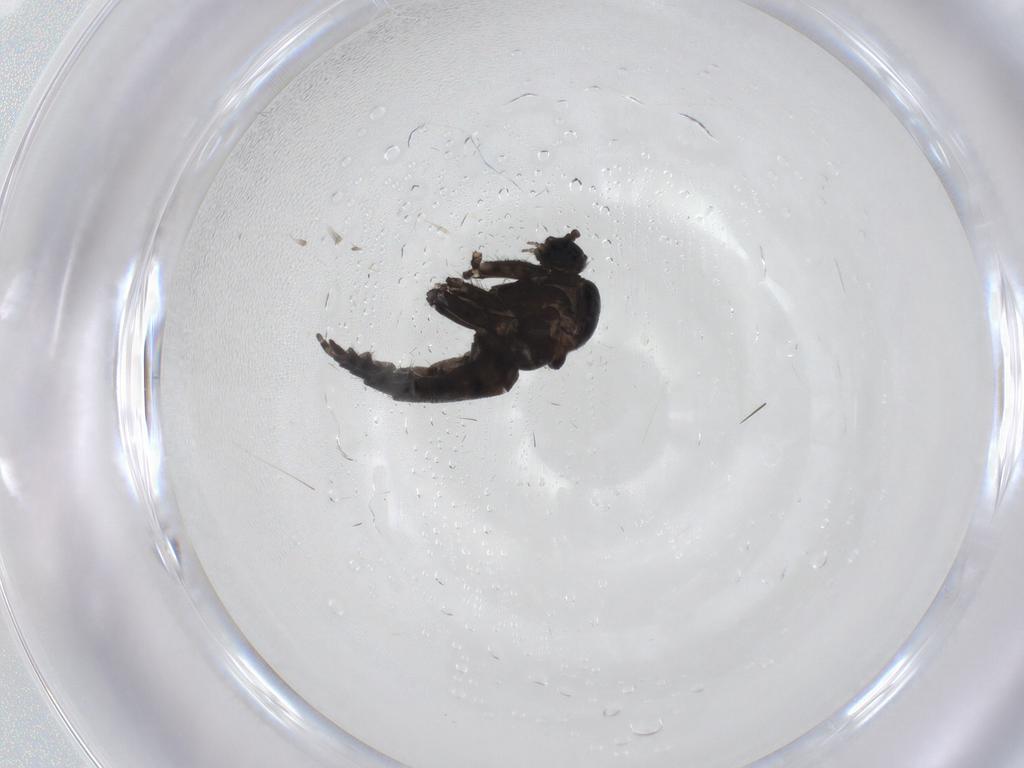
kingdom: Animalia
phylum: Arthropoda
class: Insecta
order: Diptera
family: Sciaridae
